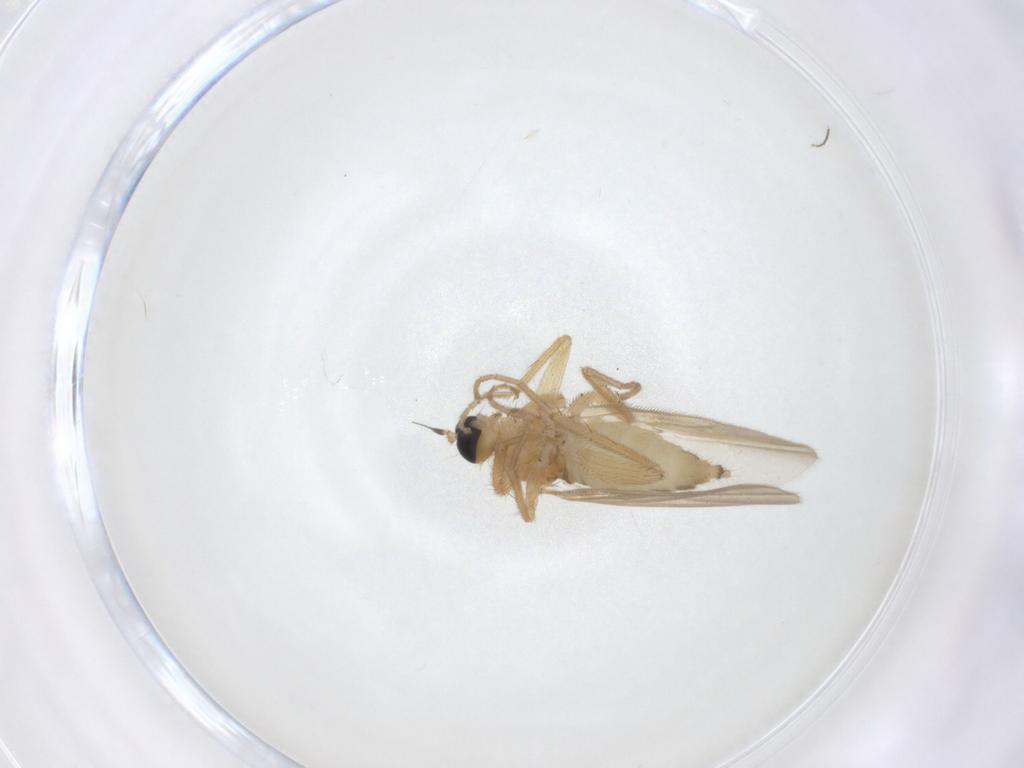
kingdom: Animalia
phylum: Arthropoda
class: Insecta
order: Diptera
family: Hybotidae
